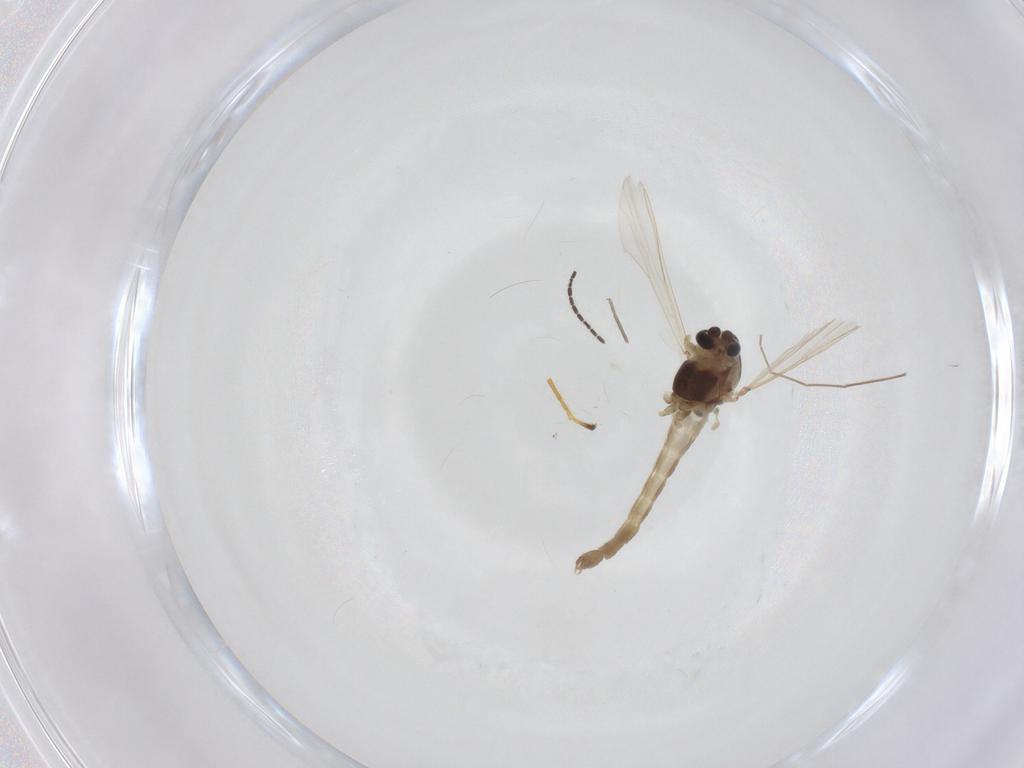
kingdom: Animalia
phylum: Arthropoda
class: Insecta
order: Diptera
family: Chironomidae
